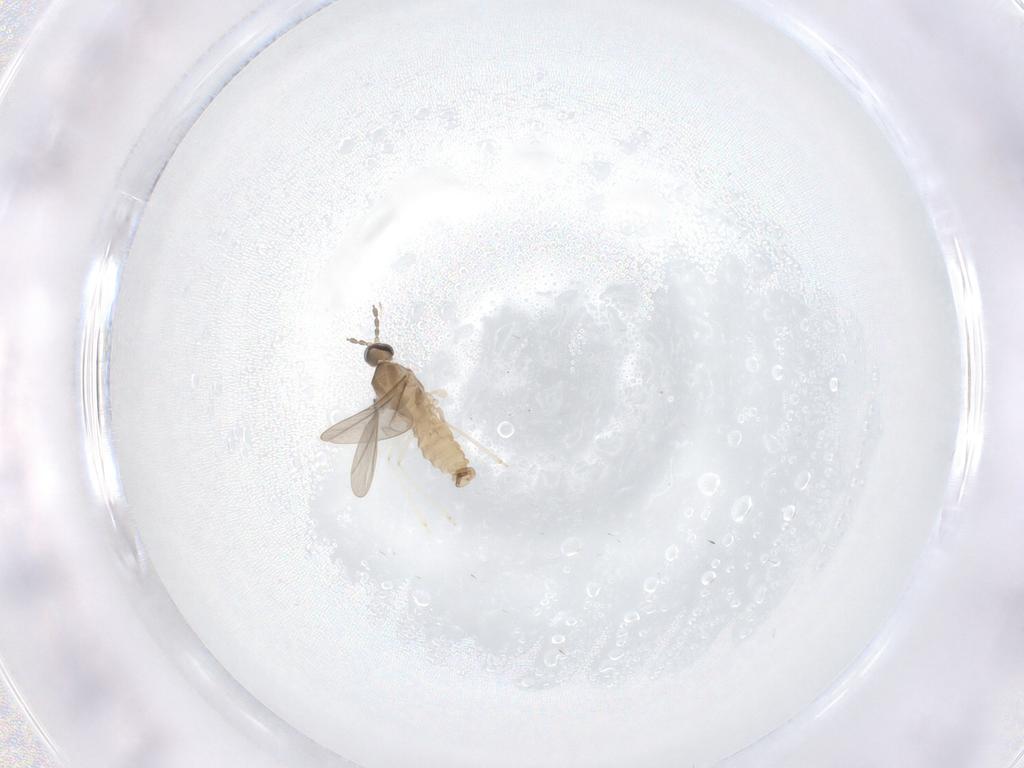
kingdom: Animalia
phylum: Arthropoda
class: Insecta
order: Diptera
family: Cecidomyiidae
